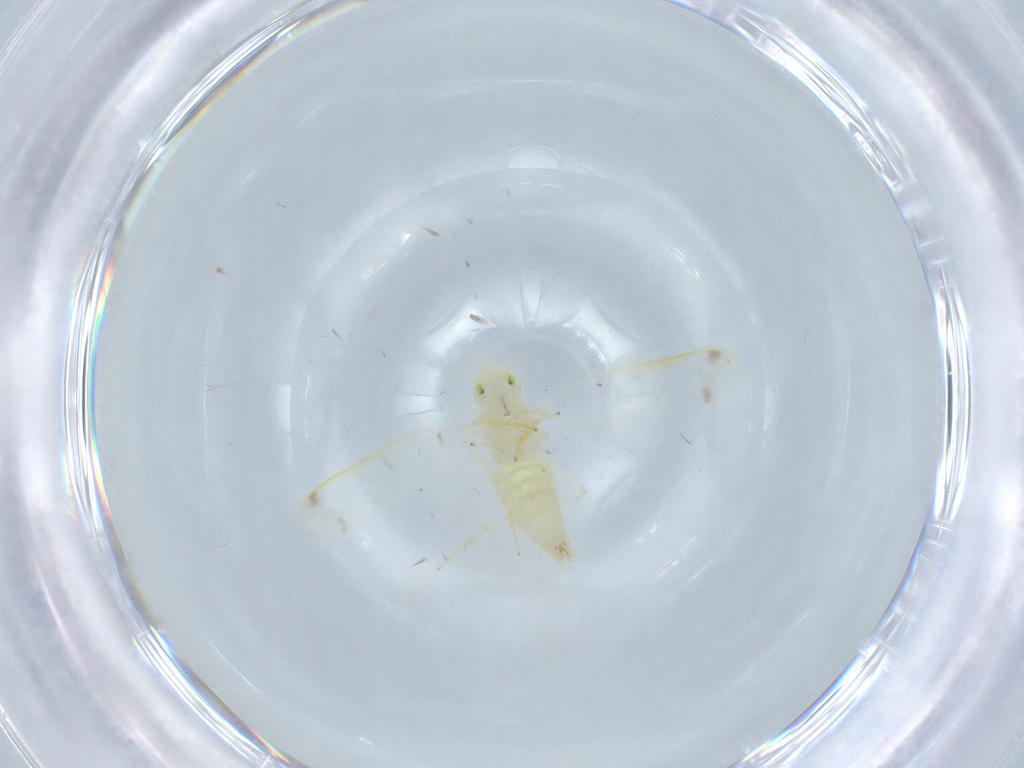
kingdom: Animalia
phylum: Arthropoda
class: Insecta
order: Hemiptera
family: Cicadellidae
